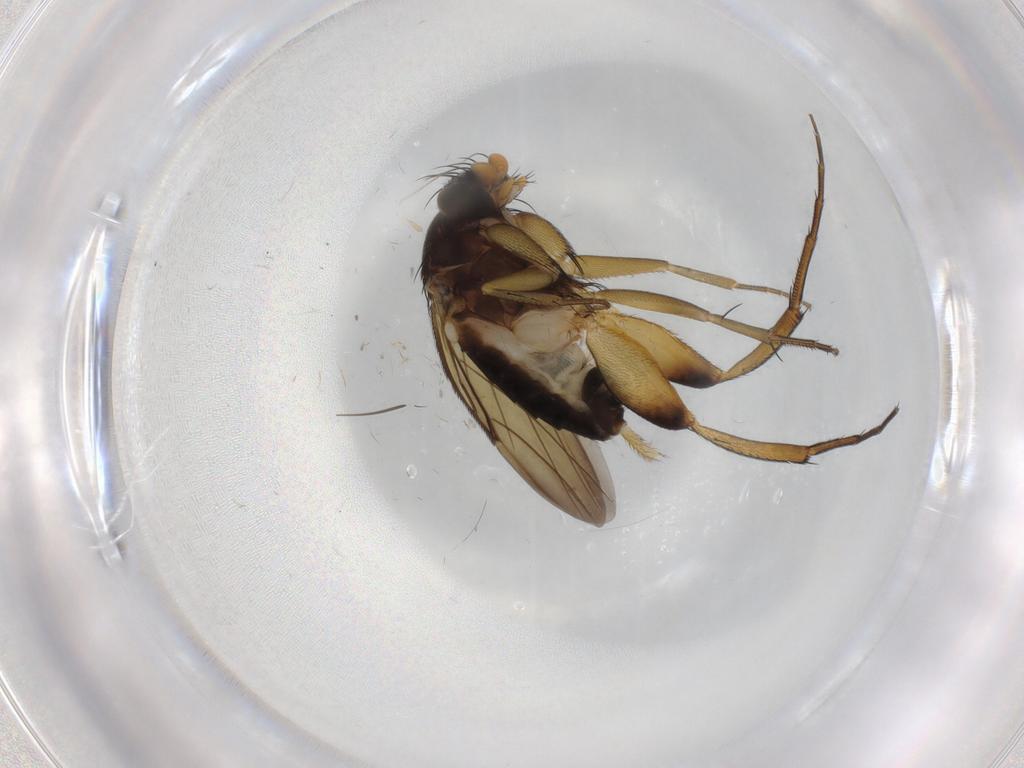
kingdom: Animalia
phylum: Arthropoda
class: Insecta
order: Diptera
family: Phoridae
